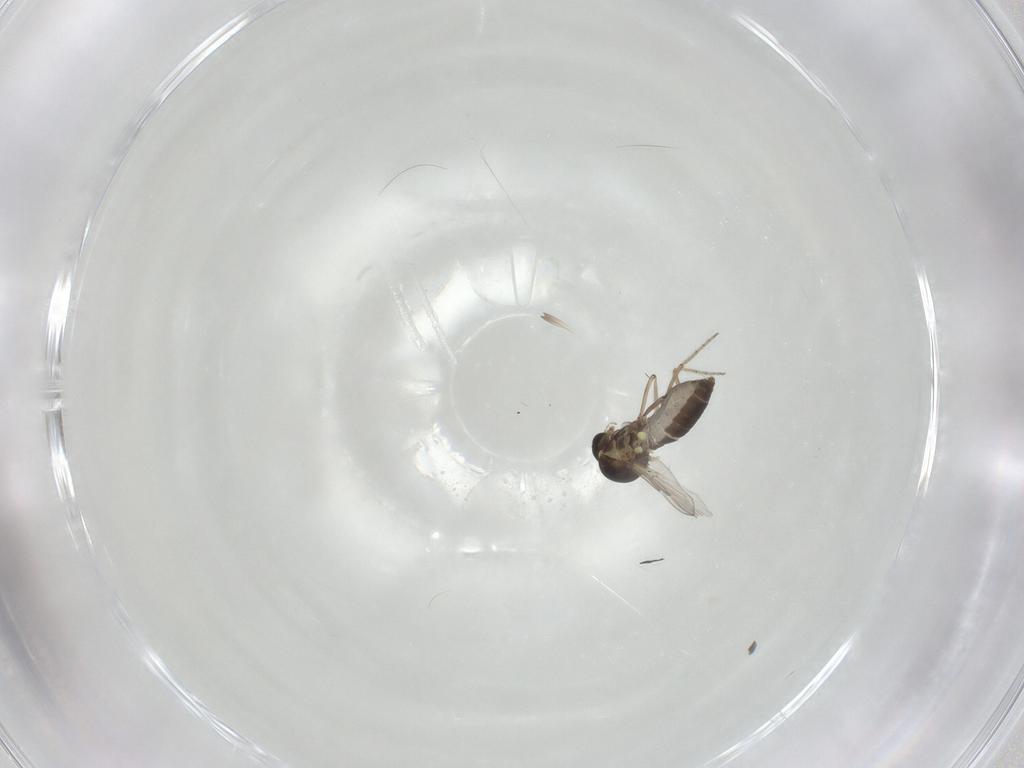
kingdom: Animalia
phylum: Arthropoda
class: Insecta
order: Diptera
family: Ceratopogonidae
